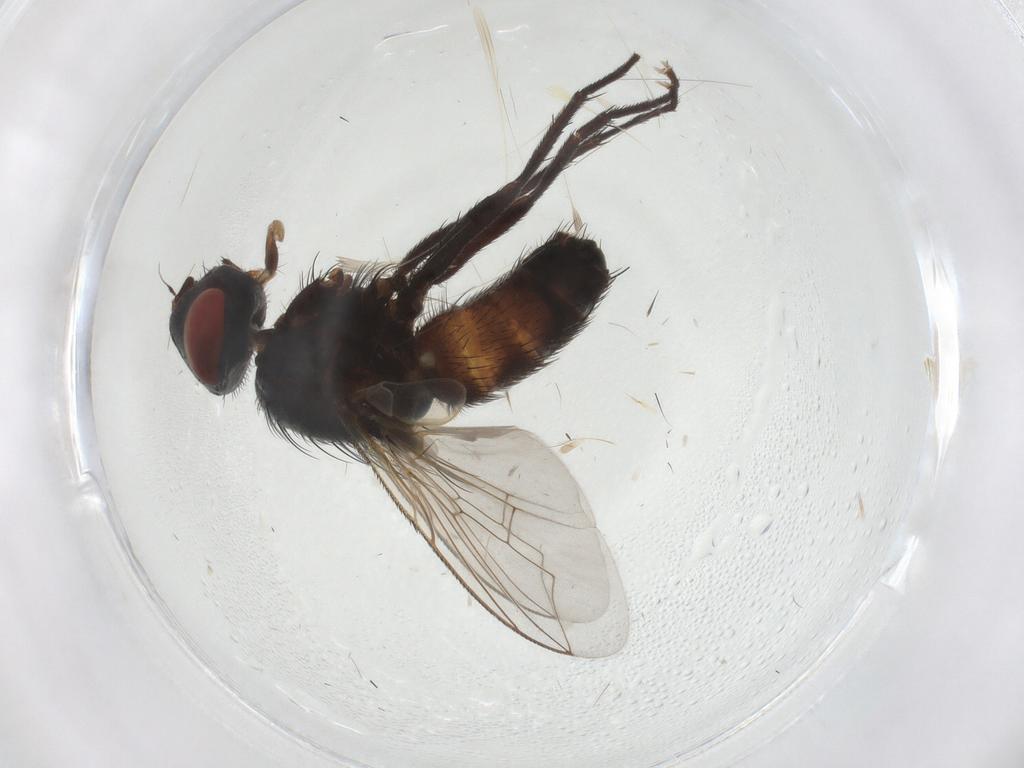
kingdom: Animalia
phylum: Arthropoda
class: Insecta
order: Diptera
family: Sarcophagidae
